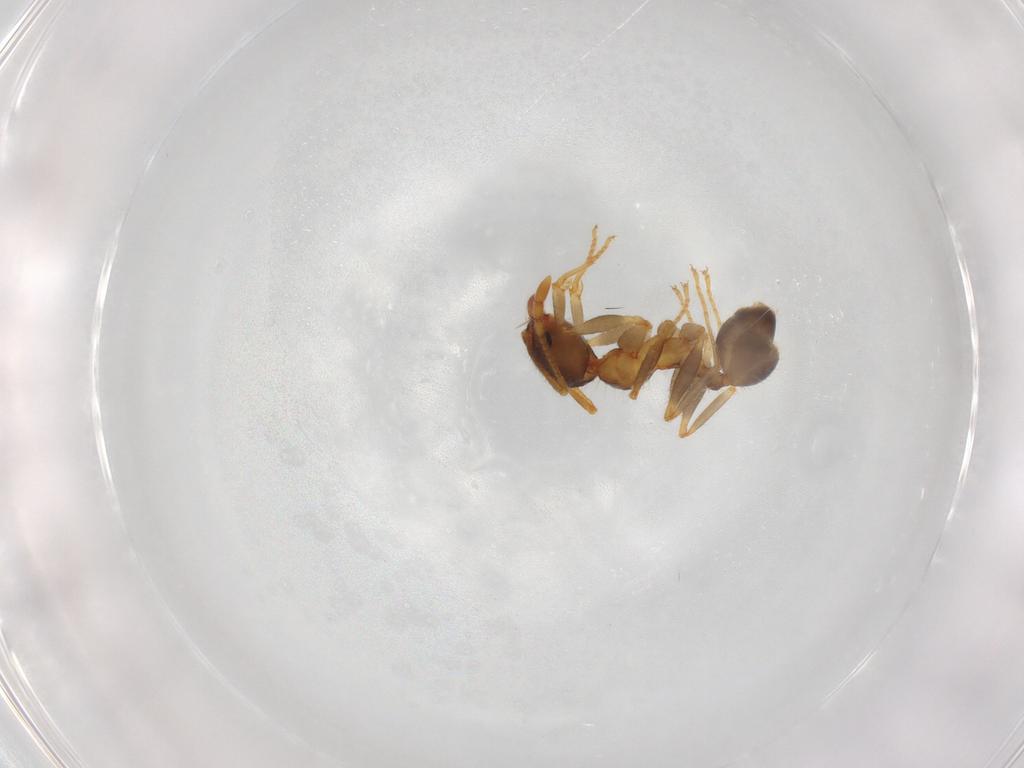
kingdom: Animalia
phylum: Arthropoda
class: Insecta
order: Hymenoptera
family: Formicidae
